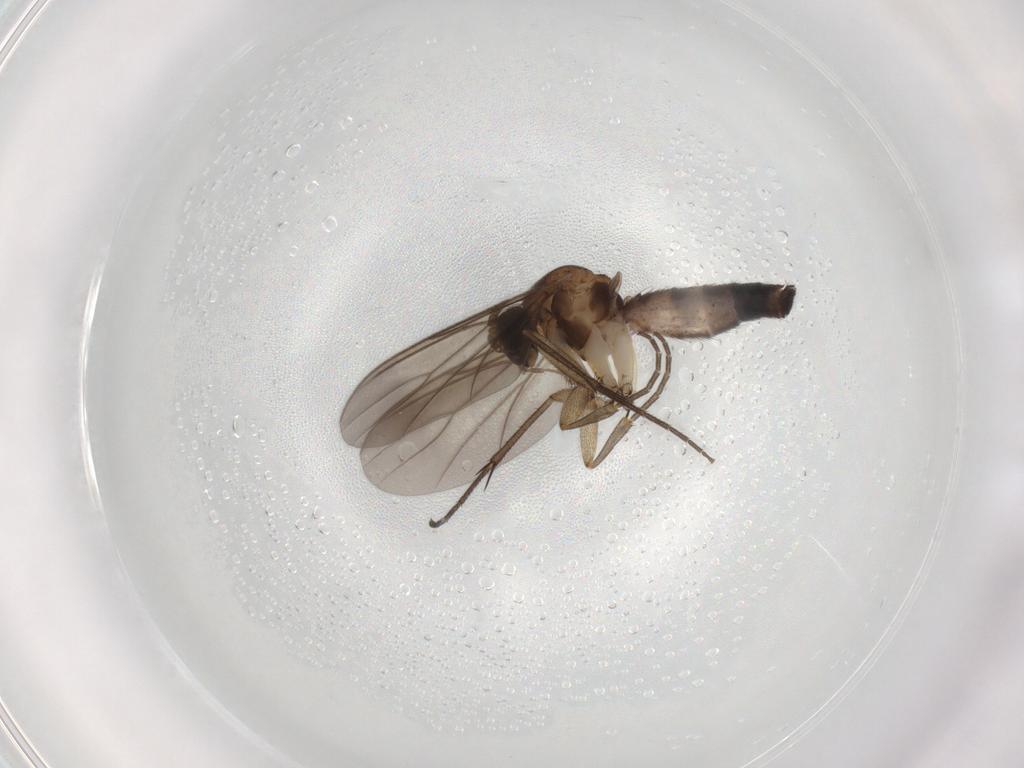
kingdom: Animalia
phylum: Arthropoda
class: Insecta
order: Diptera
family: Mycetophilidae
